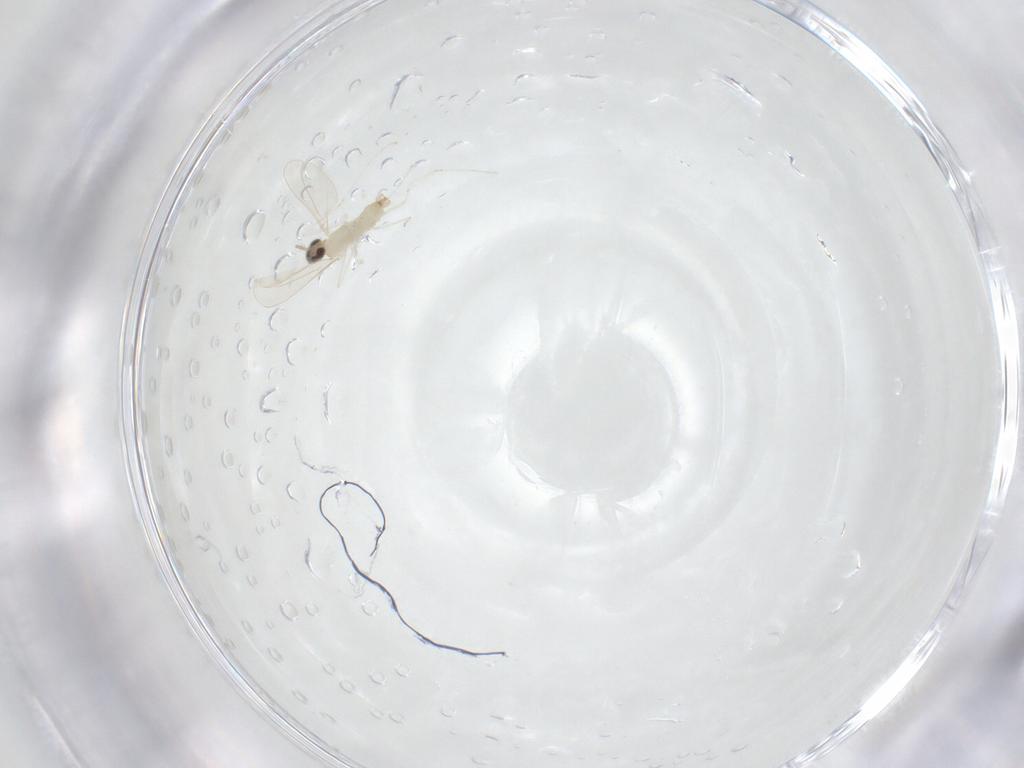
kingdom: Animalia
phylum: Arthropoda
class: Insecta
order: Diptera
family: Cecidomyiidae
